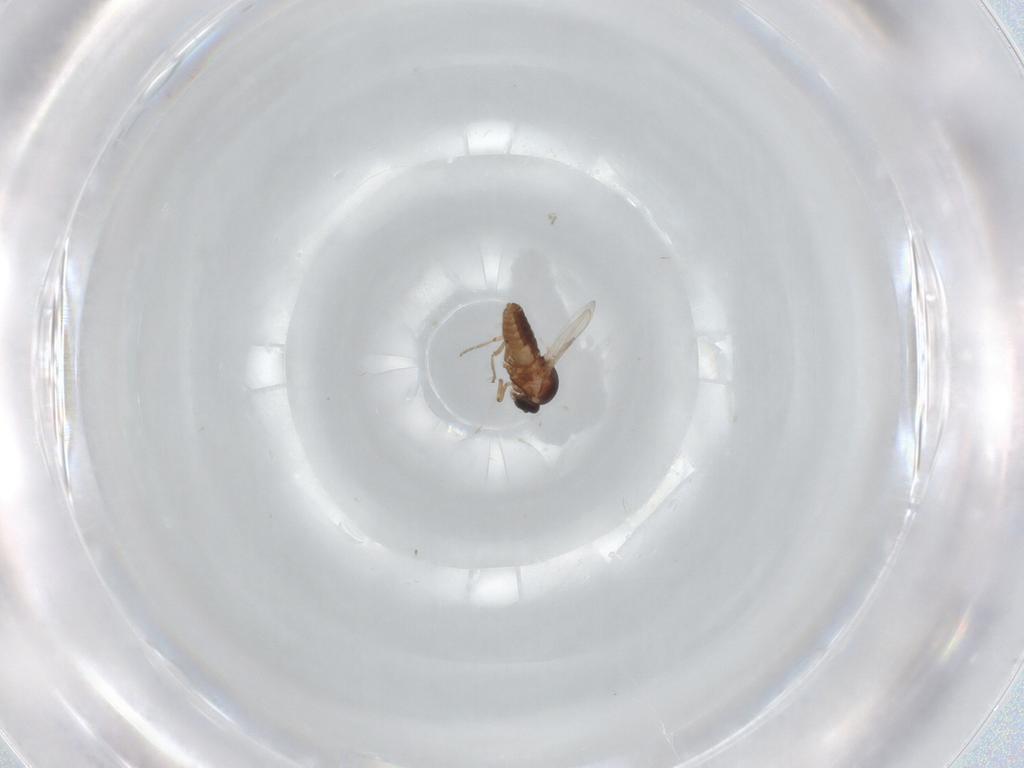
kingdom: Animalia
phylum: Arthropoda
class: Insecta
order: Diptera
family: Ceratopogonidae
